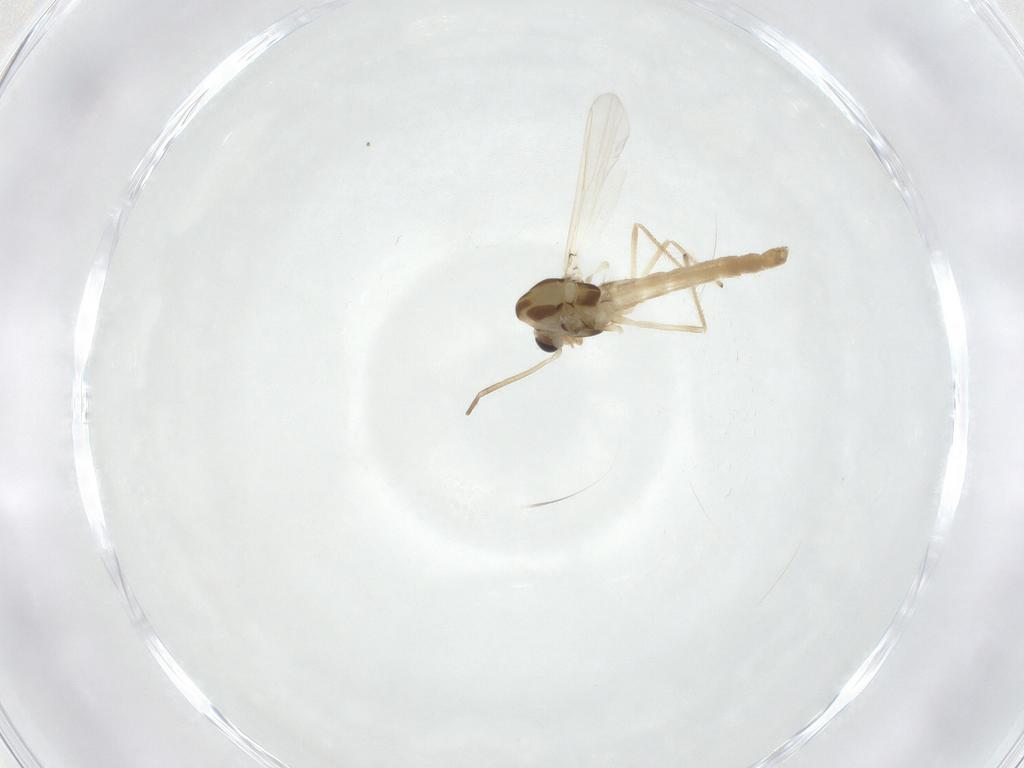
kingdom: Animalia
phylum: Arthropoda
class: Insecta
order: Diptera
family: Chironomidae
